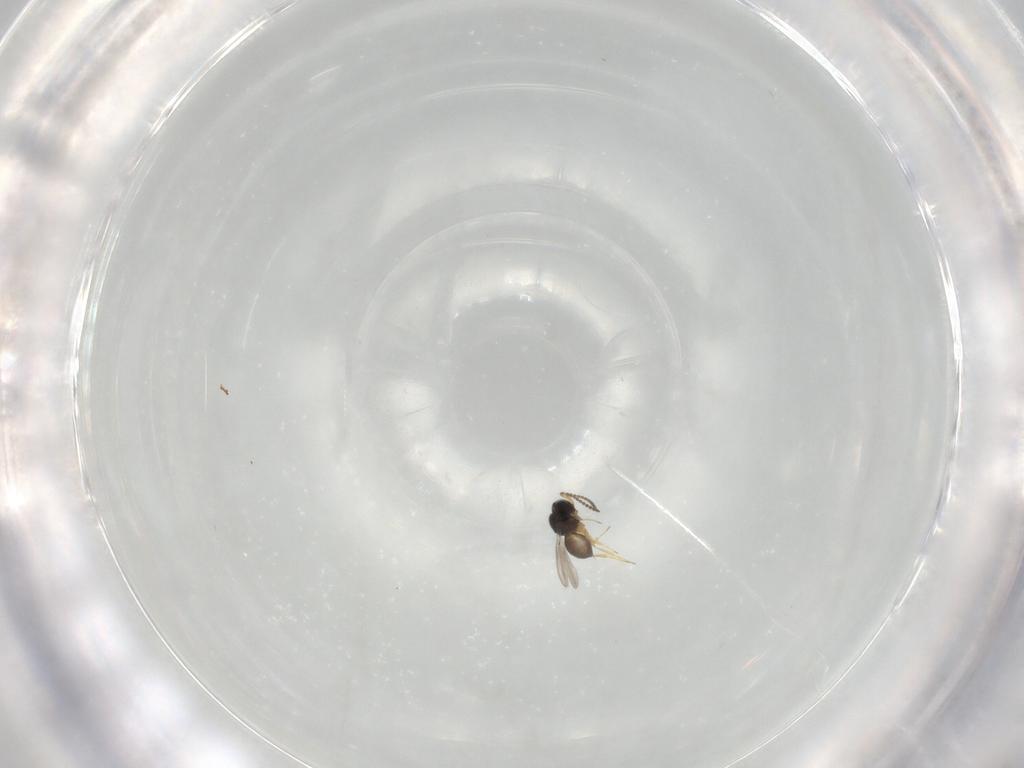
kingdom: Animalia
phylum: Arthropoda
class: Insecta
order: Hymenoptera
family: Scelionidae
